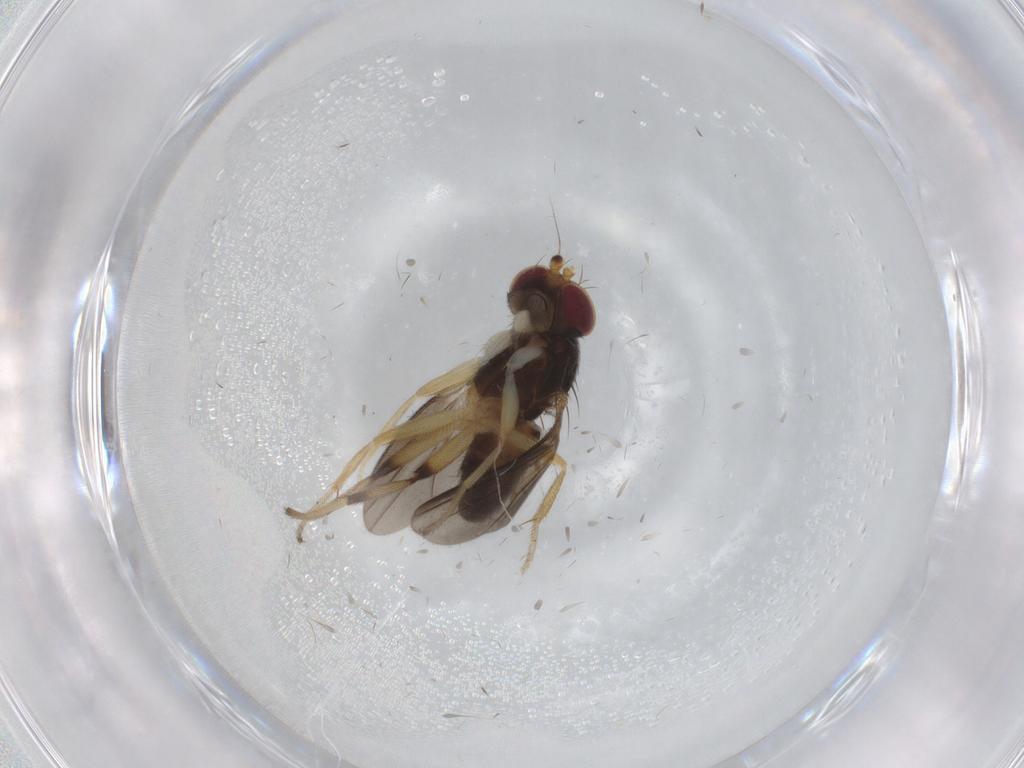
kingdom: Animalia
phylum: Arthropoda
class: Insecta
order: Diptera
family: Clusiidae
